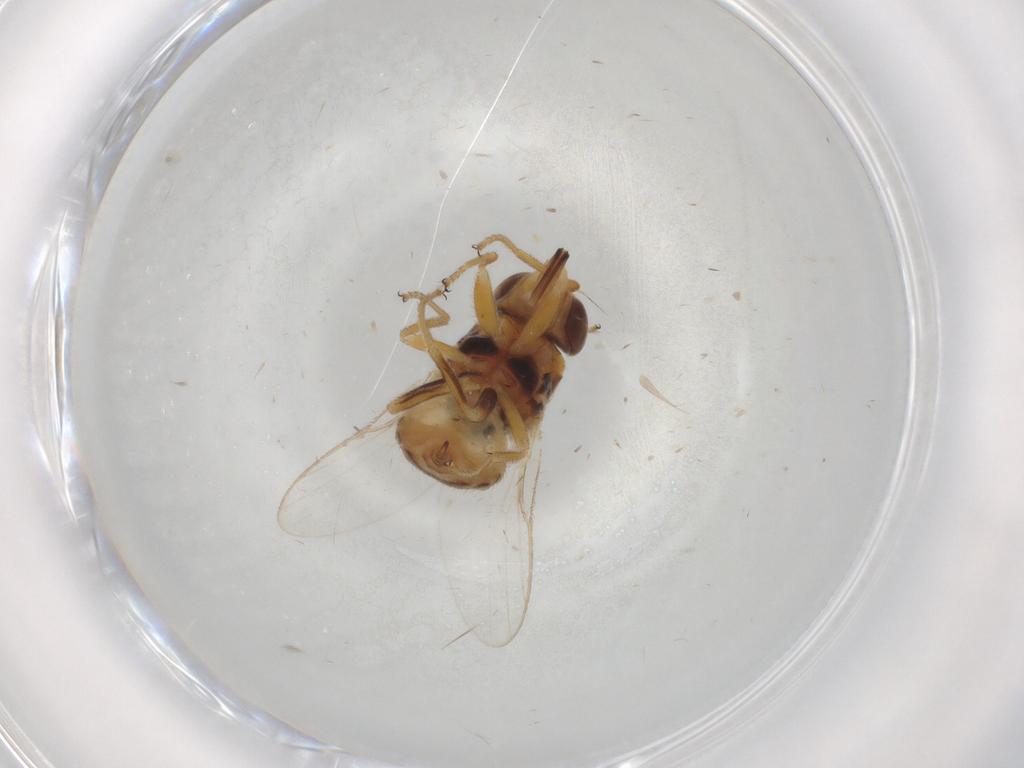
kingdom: Animalia
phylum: Arthropoda
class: Insecta
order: Diptera
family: Chloropidae
